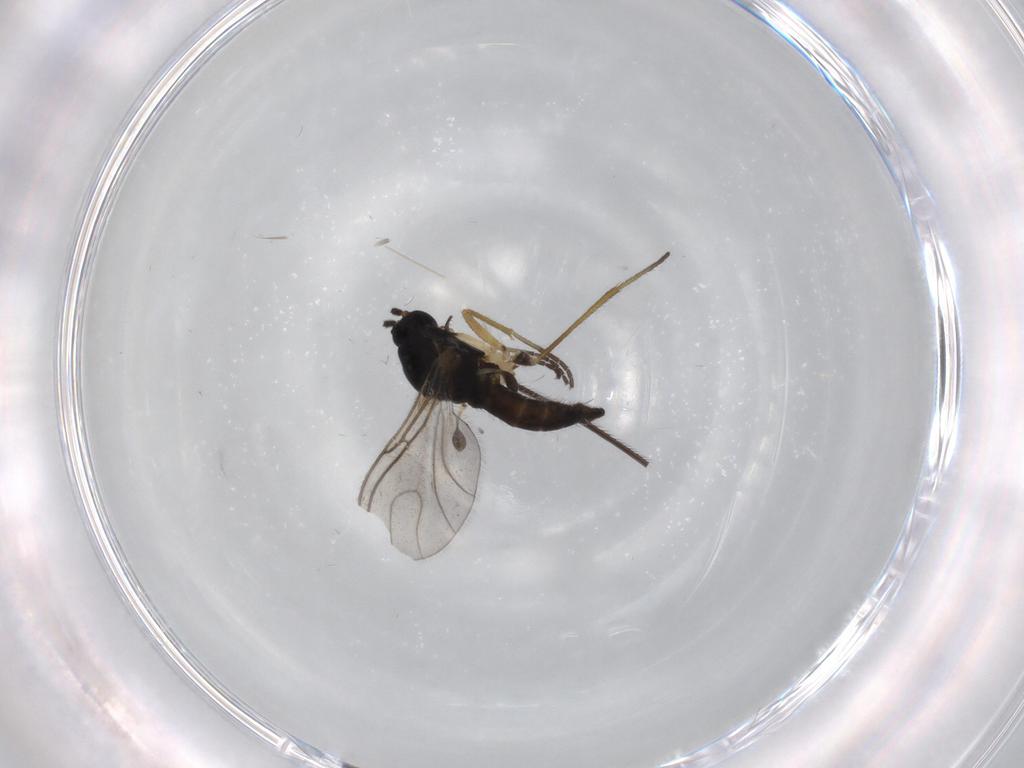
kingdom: Animalia
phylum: Arthropoda
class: Insecta
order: Diptera
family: Sciaridae
